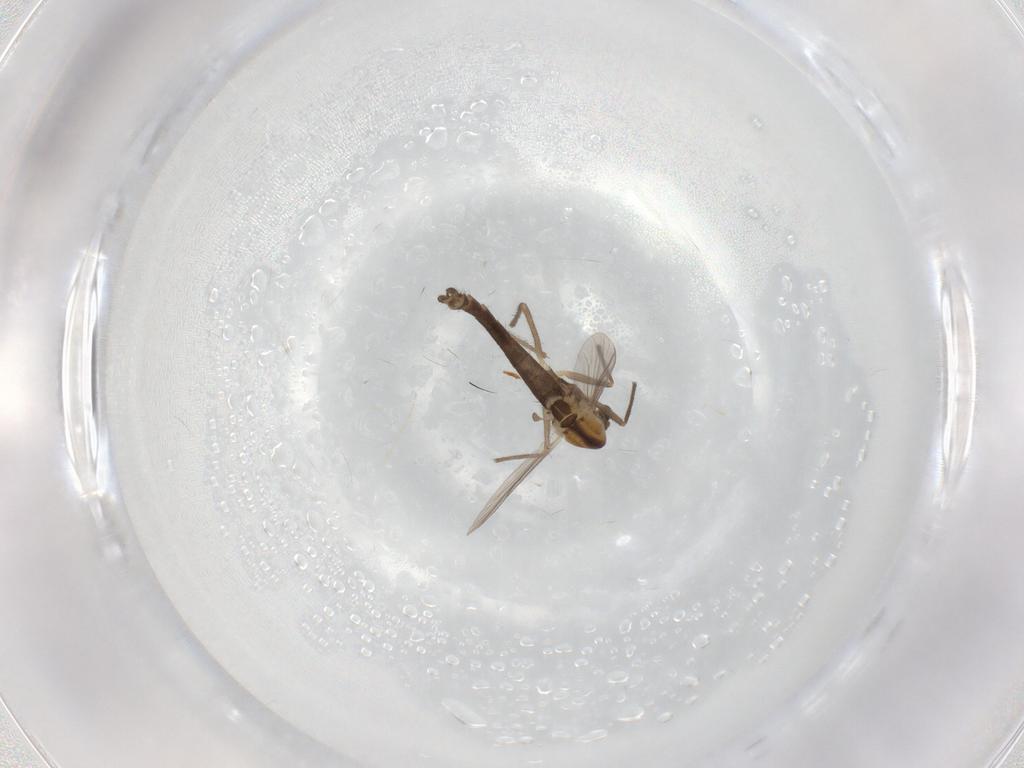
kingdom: Animalia
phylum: Arthropoda
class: Insecta
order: Diptera
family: Chironomidae
